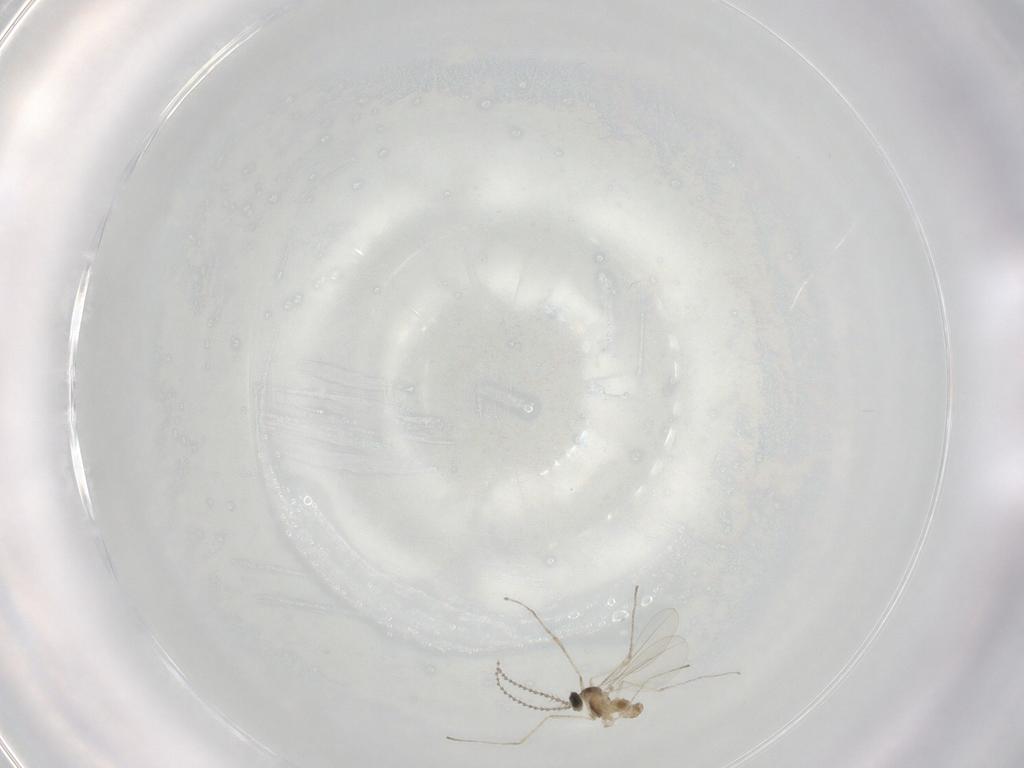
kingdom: Animalia
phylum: Arthropoda
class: Insecta
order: Diptera
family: Cecidomyiidae
